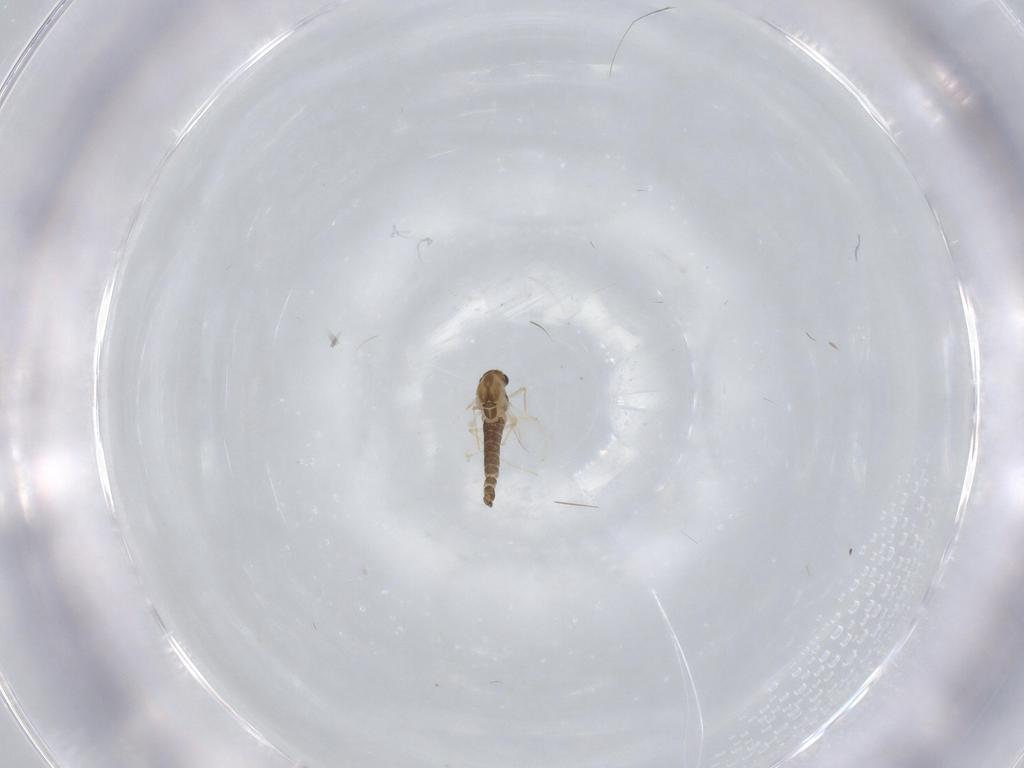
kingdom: Animalia
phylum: Arthropoda
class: Insecta
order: Diptera
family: Chironomidae
